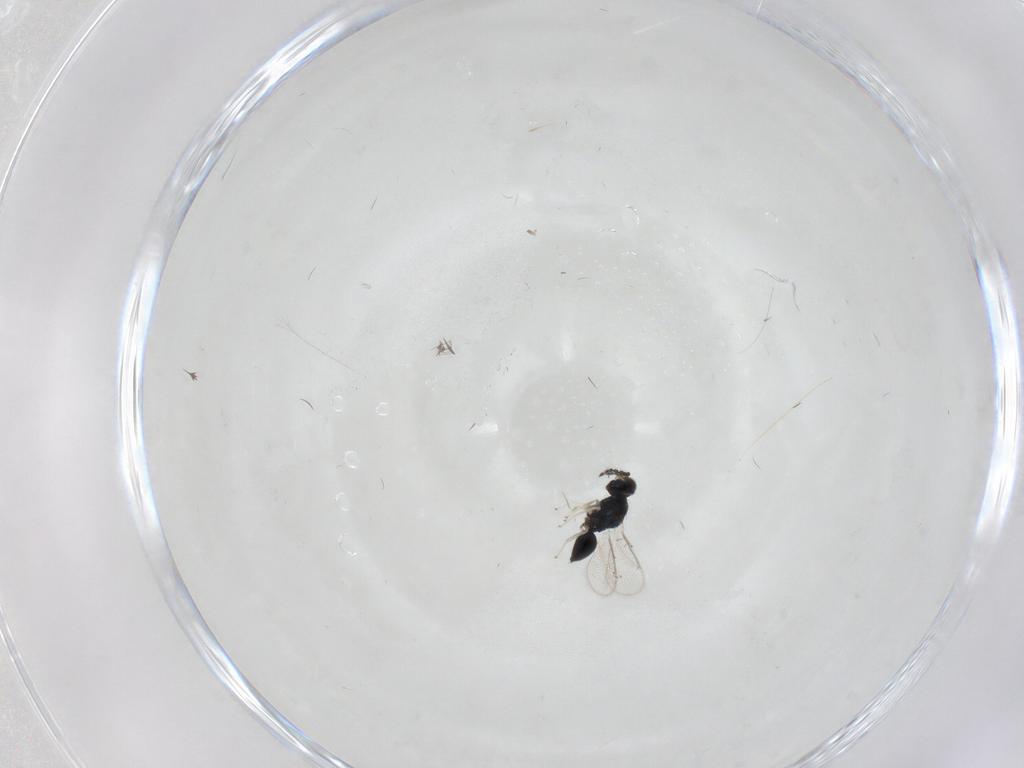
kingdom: Animalia
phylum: Arthropoda
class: Insecta
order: Hymenoptera
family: Eulophidae
